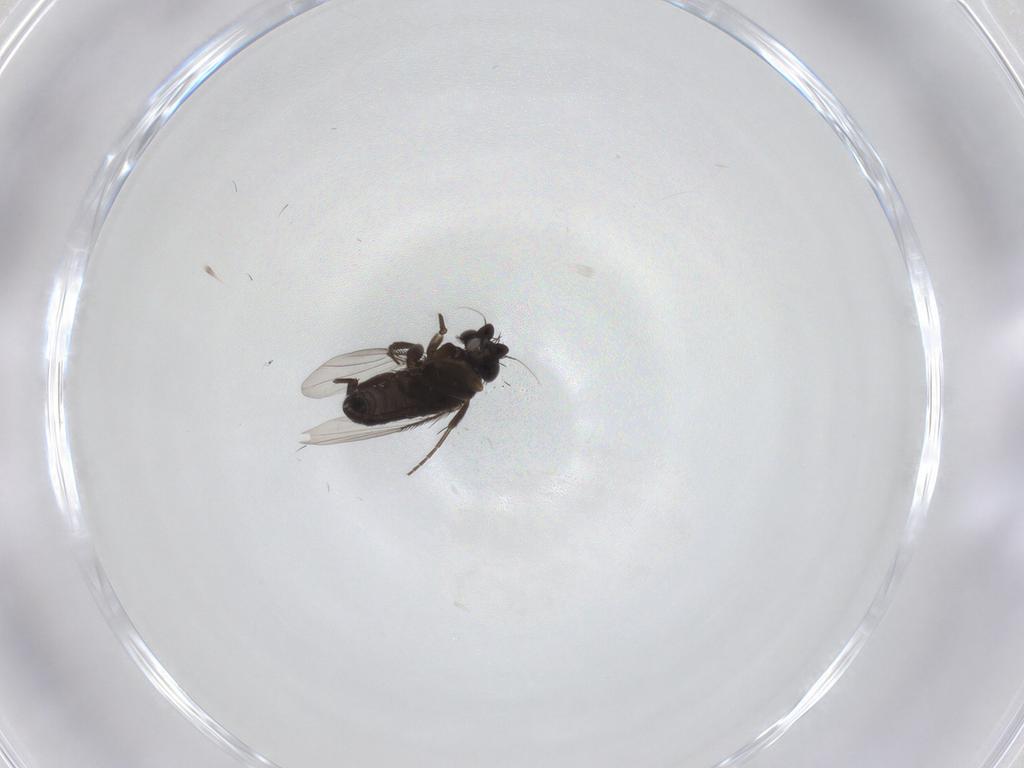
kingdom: Animalia
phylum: Arthropoda
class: Insecta
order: Diptera
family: Therevidae
